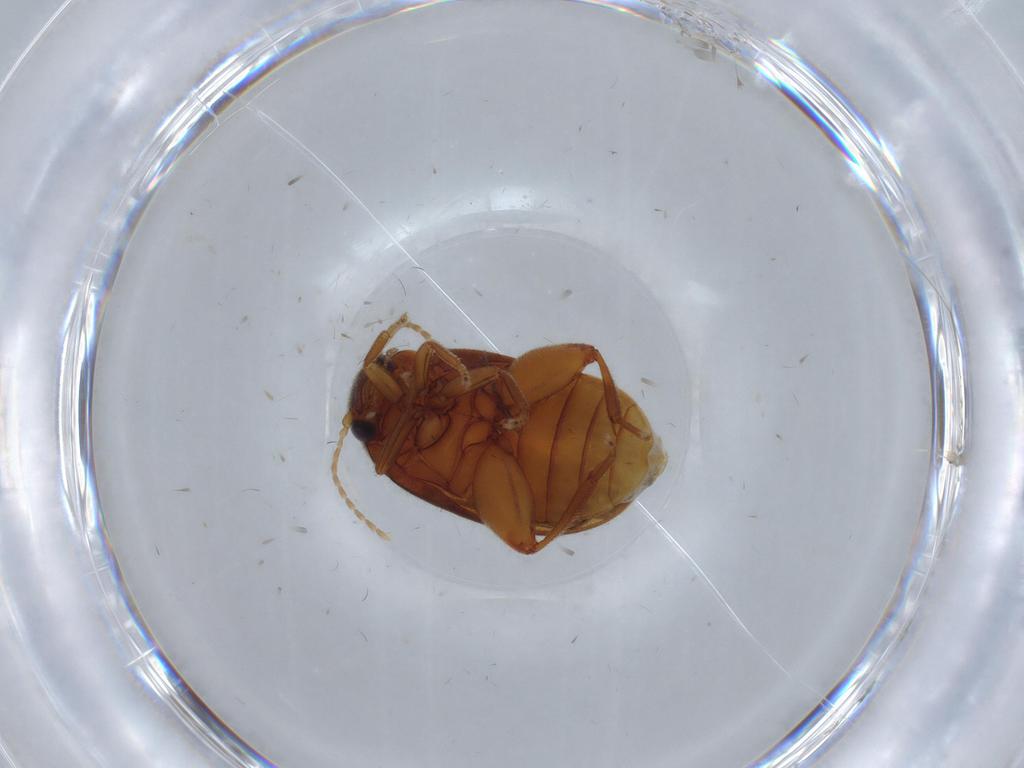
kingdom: Animalia
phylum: Arthropoda
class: Insecta
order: Coleoptera
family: Scirtidae
